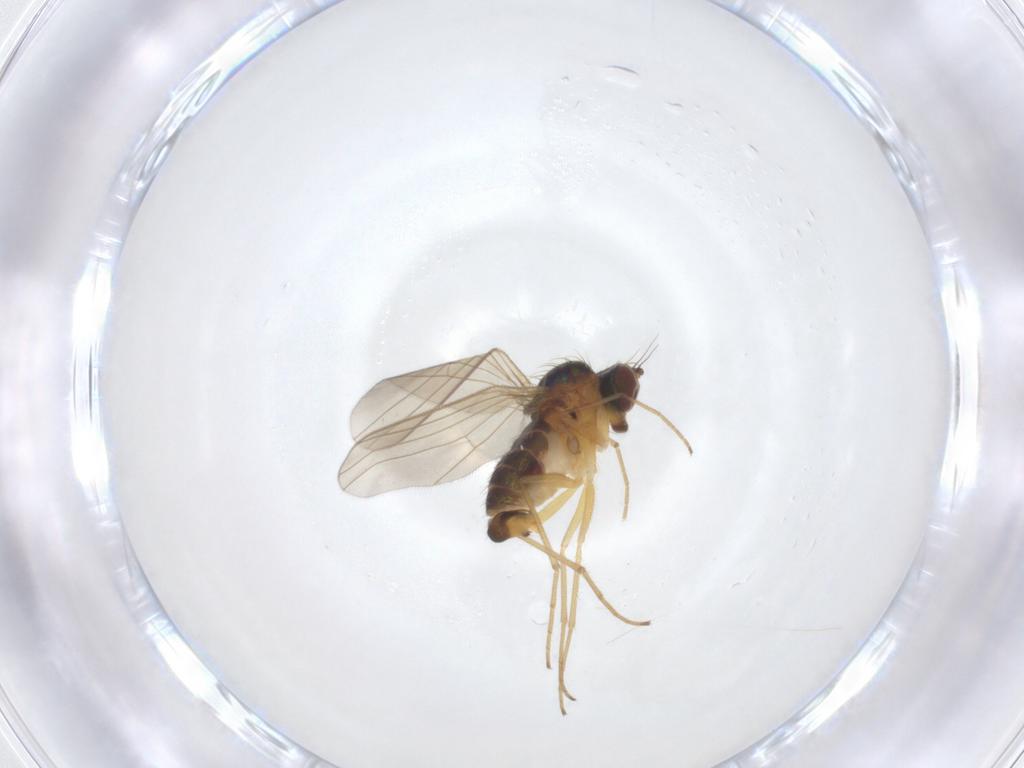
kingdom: Animalia
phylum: Arthropoda
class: Insecta
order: Diptera
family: Dolichopodidae
